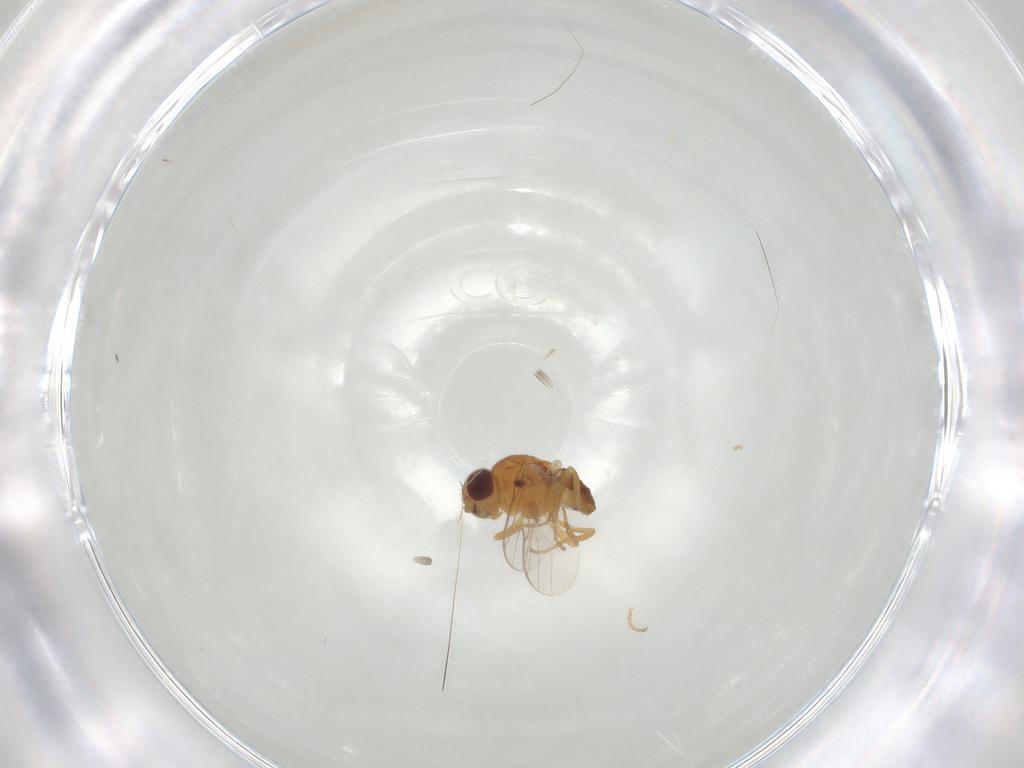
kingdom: Animalia
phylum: Arthropoda
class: Insecta
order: Diptera
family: Chloropidae
